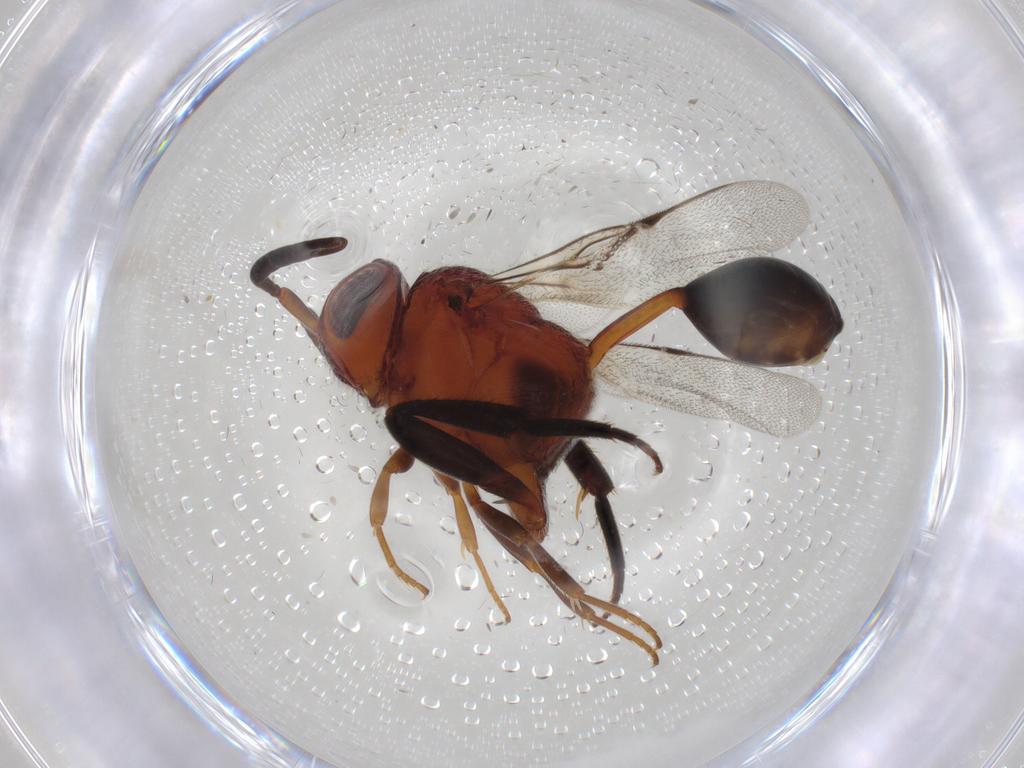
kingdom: Animalia
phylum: Arthropoda
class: Insecta
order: Hymenoptera
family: Evaniidae
